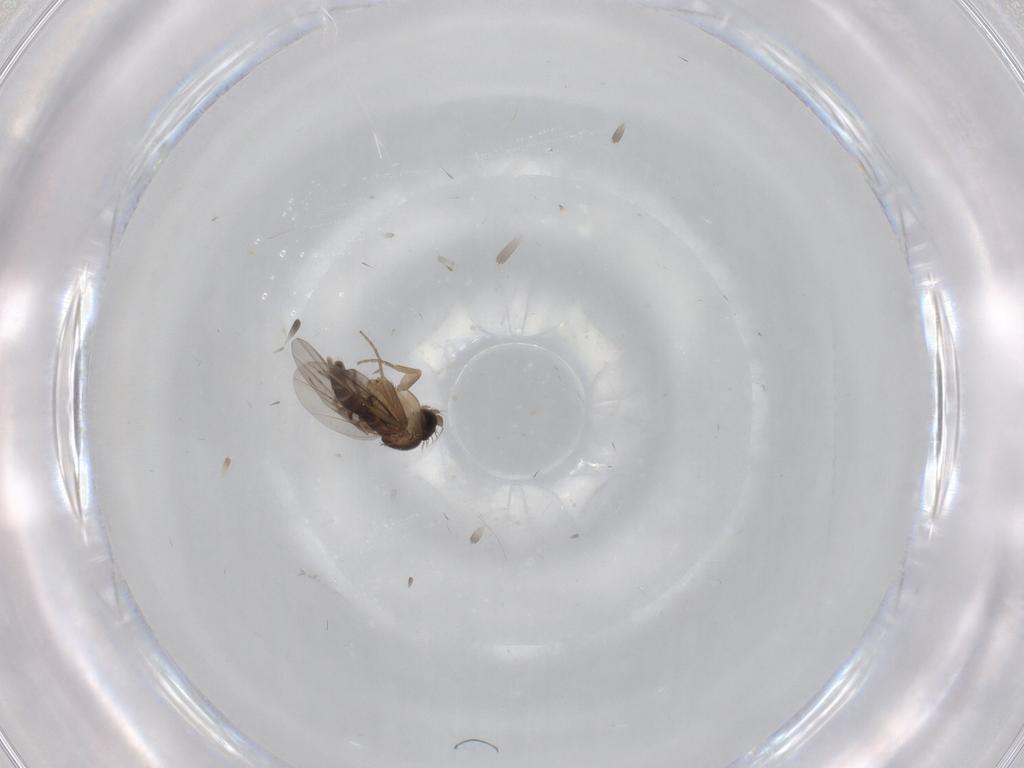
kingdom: Animalia
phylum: Arthropoda
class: Insecta
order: Diptera
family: Phoridae
